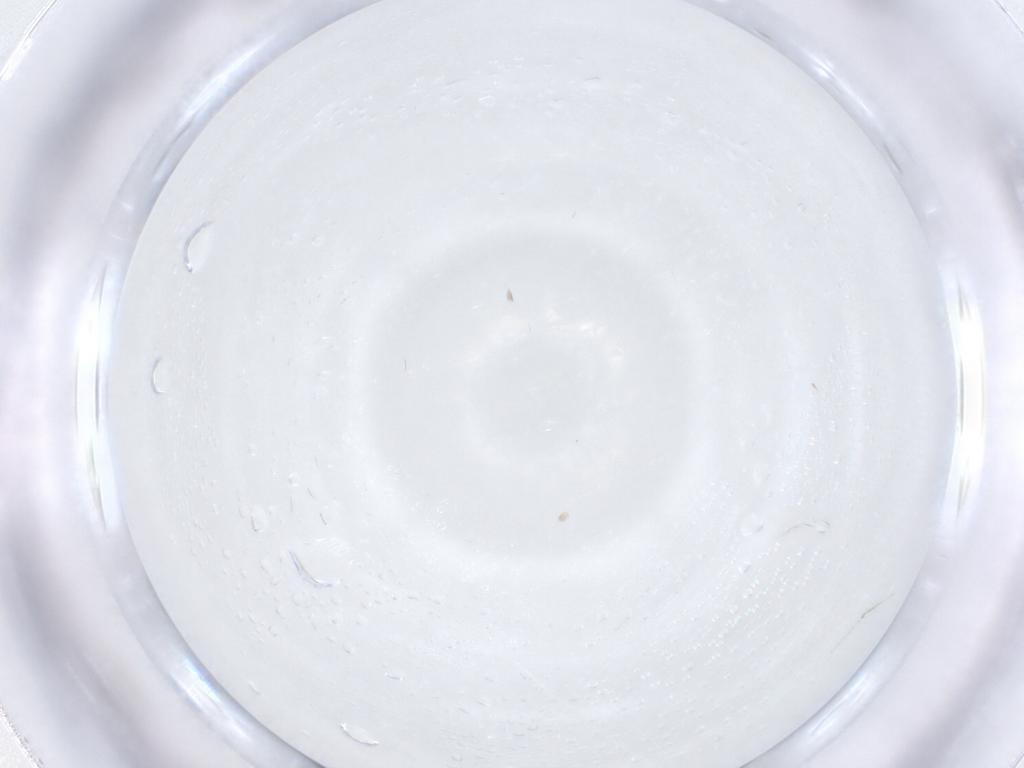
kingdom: Animalia
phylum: Arthropoda
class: Insecta
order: Diptera
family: Cecidomyiidae
